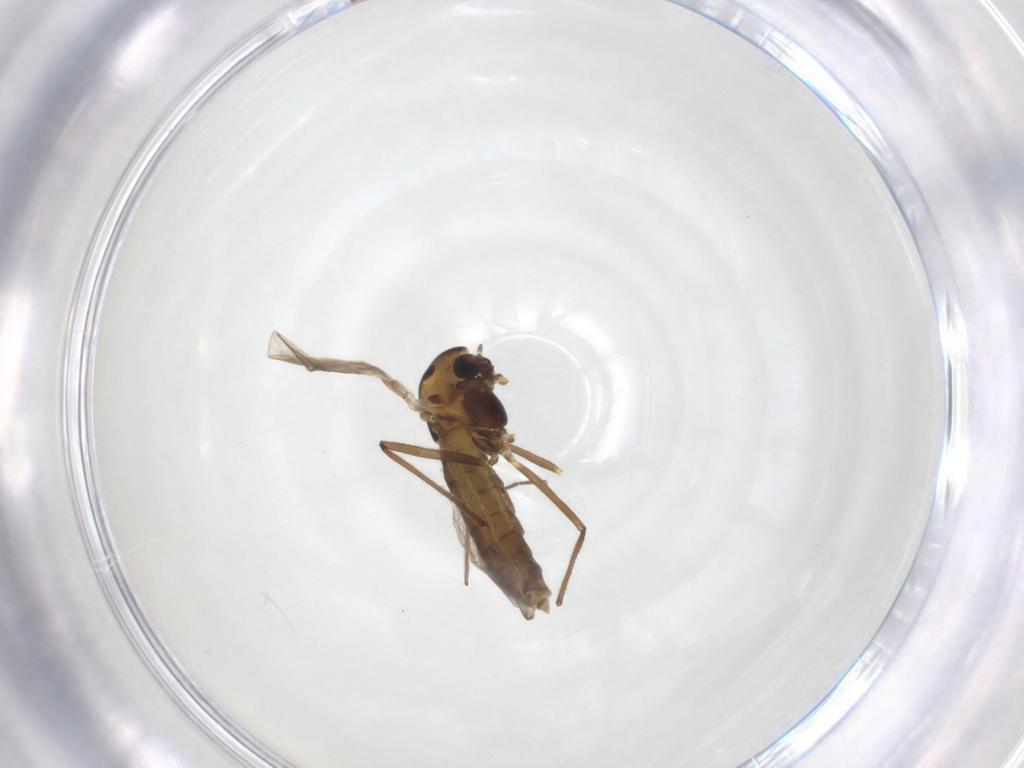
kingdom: Animalia
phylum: Arthropoda
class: Insecta
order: Diptera
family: Chironomidae
